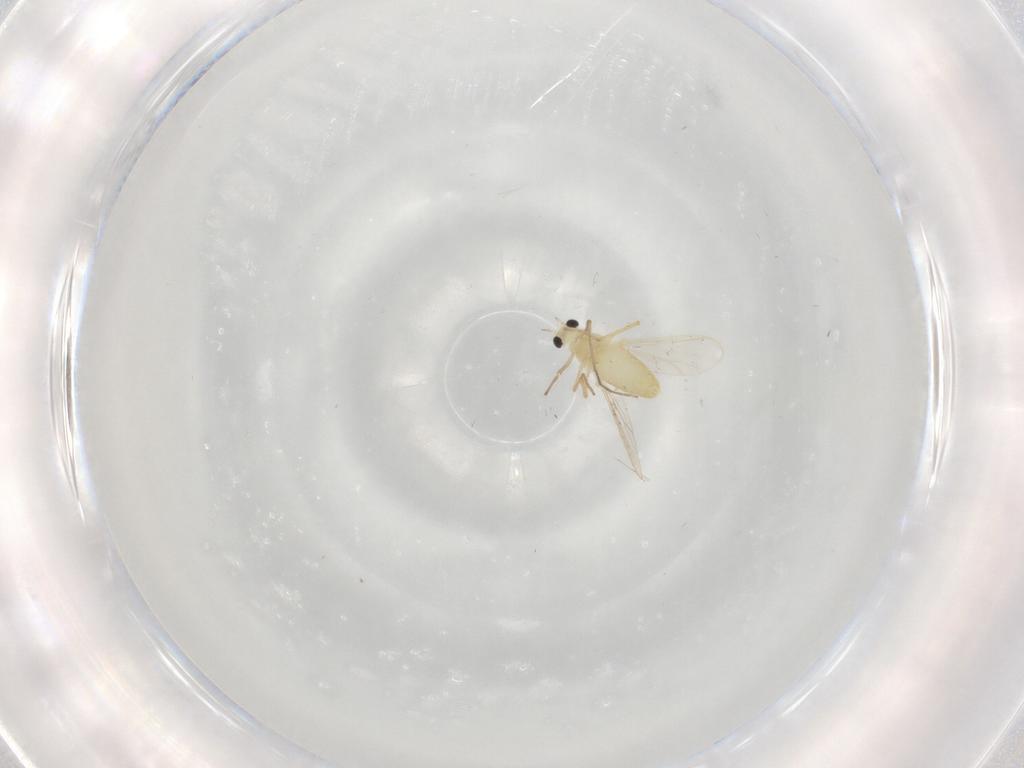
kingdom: Animalia
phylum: Arthropoda
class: Insecta
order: Diptera
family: Chironomidae
